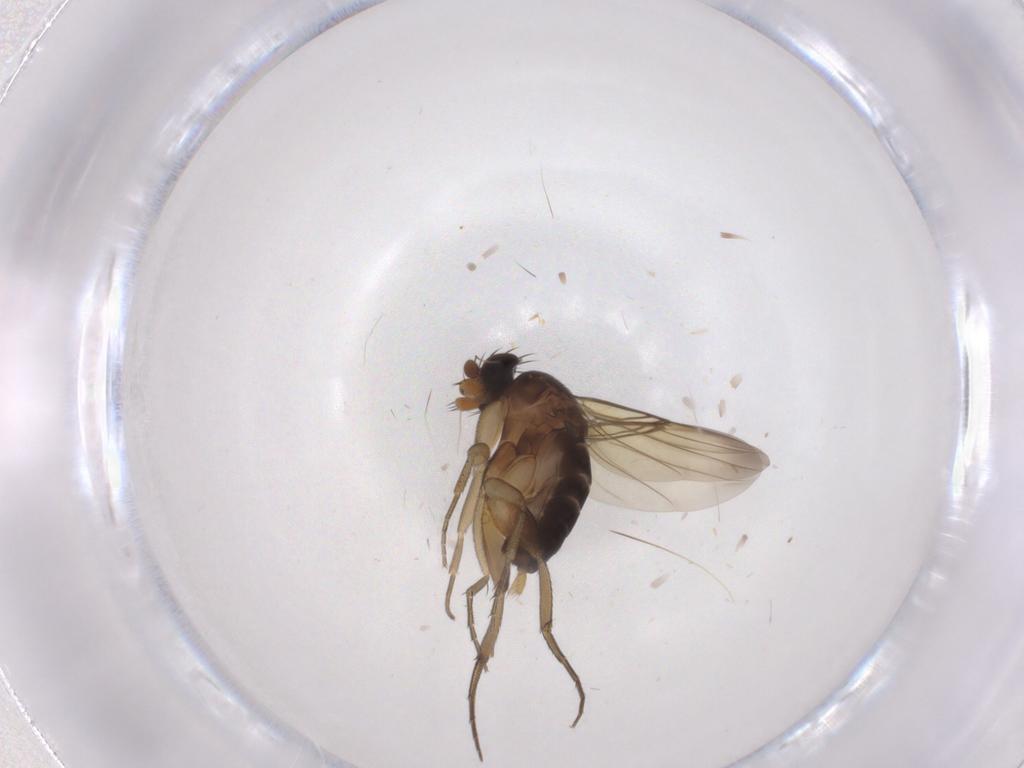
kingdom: Animalia
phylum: Arthropoda
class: Insecta
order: Diptera
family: Phoridae
